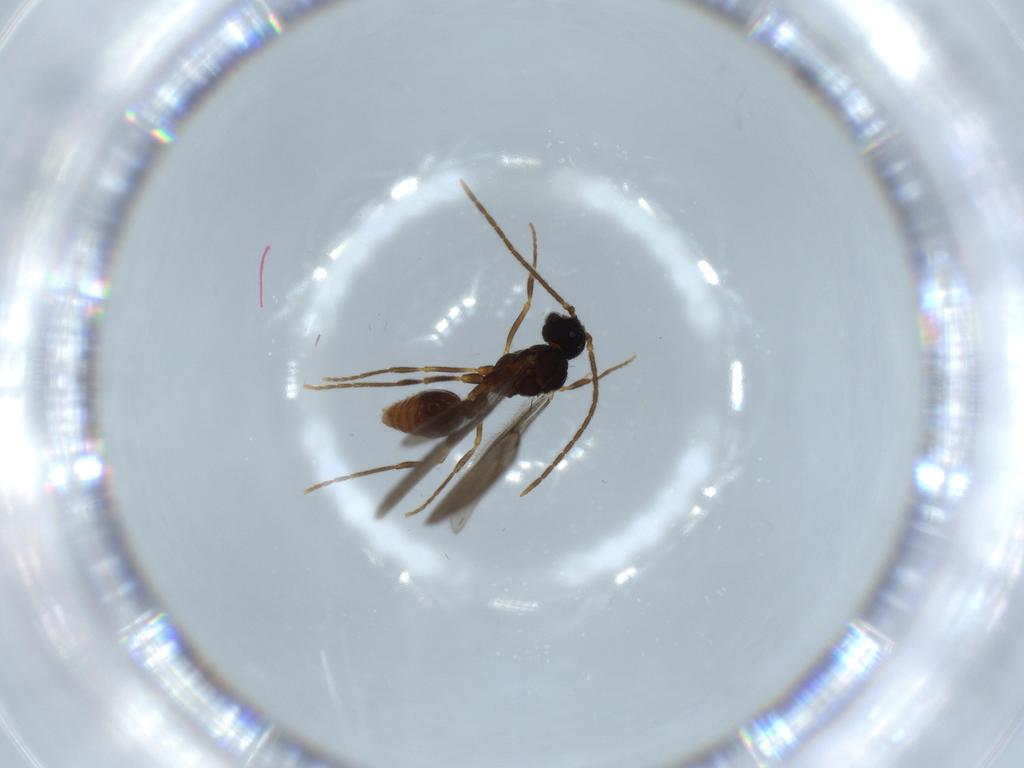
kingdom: Animalia
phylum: Arthropoda
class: Insecta
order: Hymenoptera
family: Formicidae
